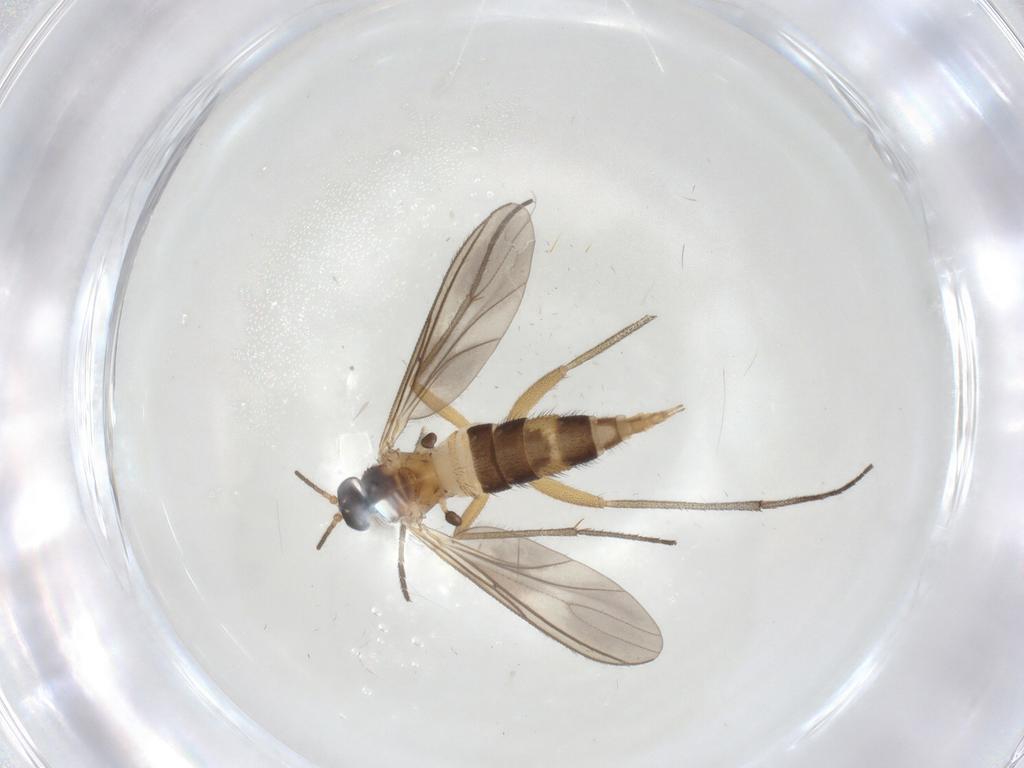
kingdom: Animalia
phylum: Arthropoda
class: Insecta
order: Diptera
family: Sciaridae
